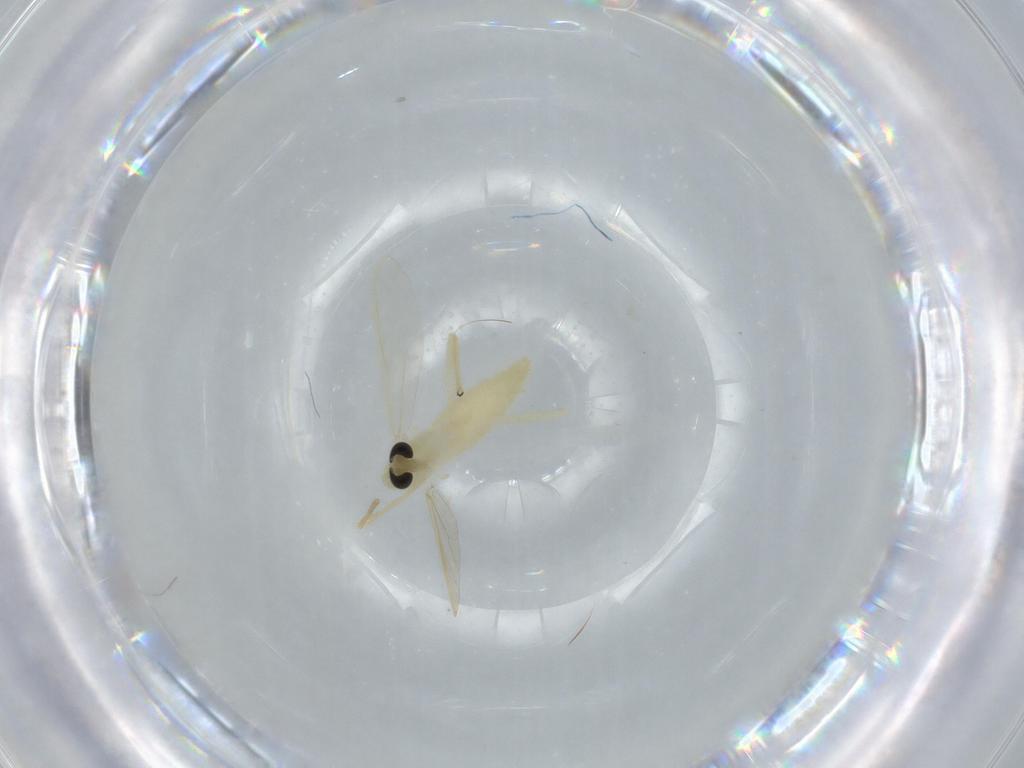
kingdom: Animalia
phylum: Arthropoda
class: Insecta
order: Diptera
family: Chironomidae
